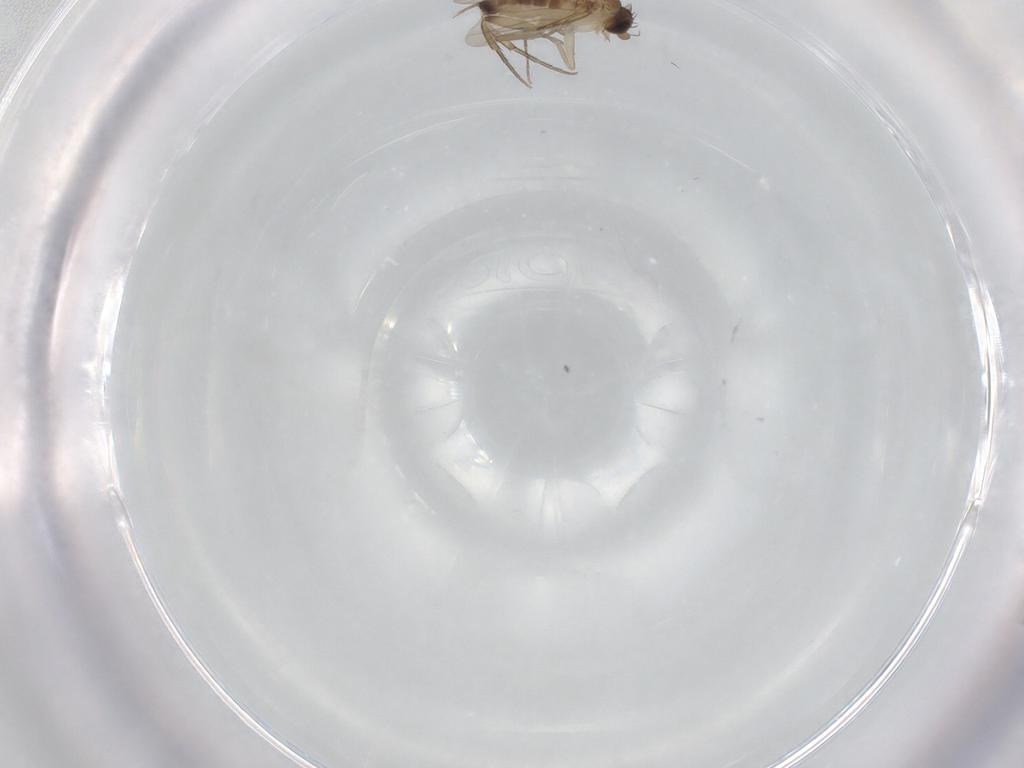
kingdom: Animalia
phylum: Arthropoda
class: Insecta
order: Diptera
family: Phoridae
